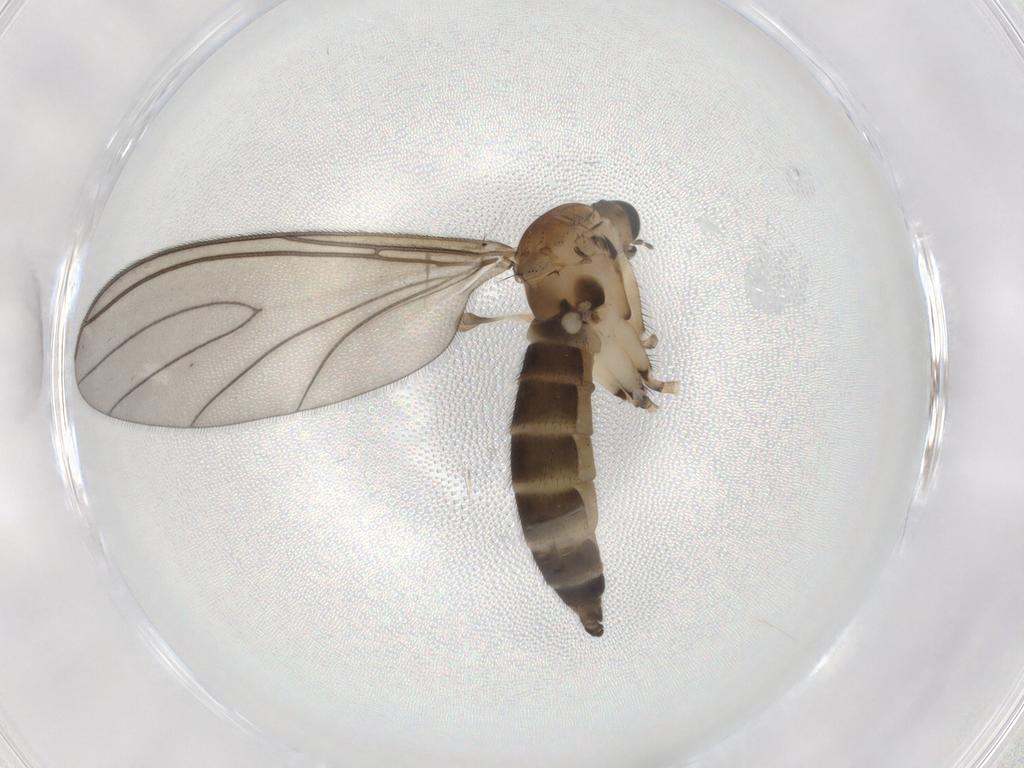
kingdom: Animalia
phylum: Arthropoda
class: Insecta
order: Diptera
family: Sciaridae
